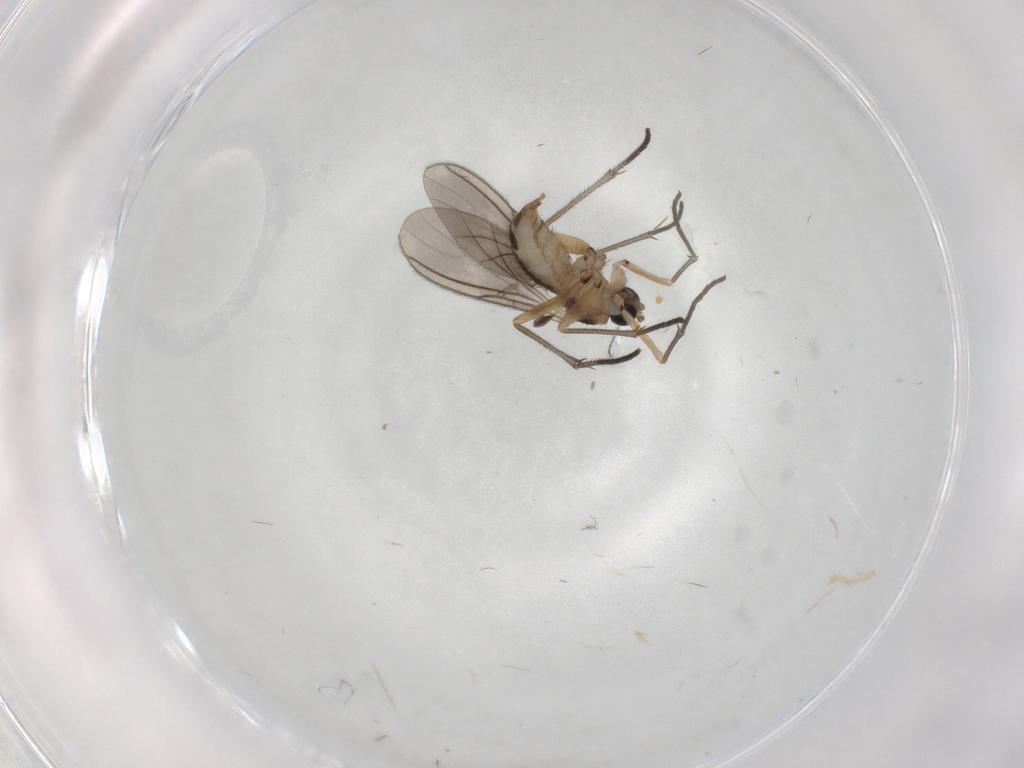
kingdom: Animalia
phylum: Arthropoda
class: Insecta
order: Diptera
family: Sciaridae
